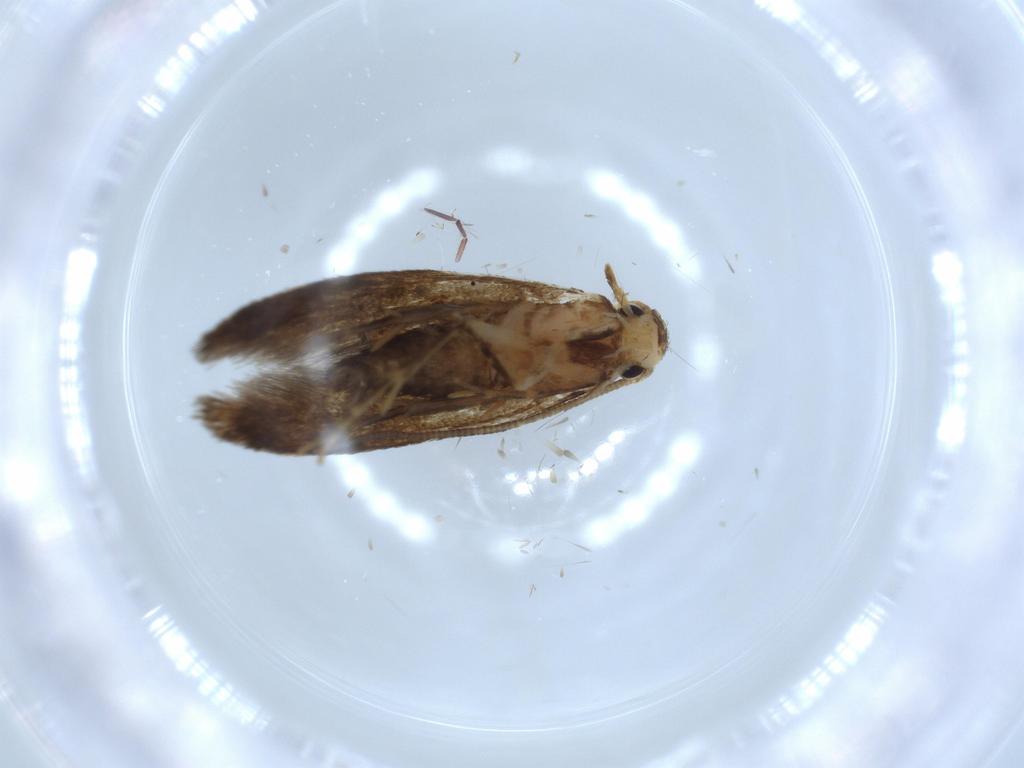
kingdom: Animalia
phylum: Arthropoda
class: Insecta
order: Lepidoptera
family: Tineidae
